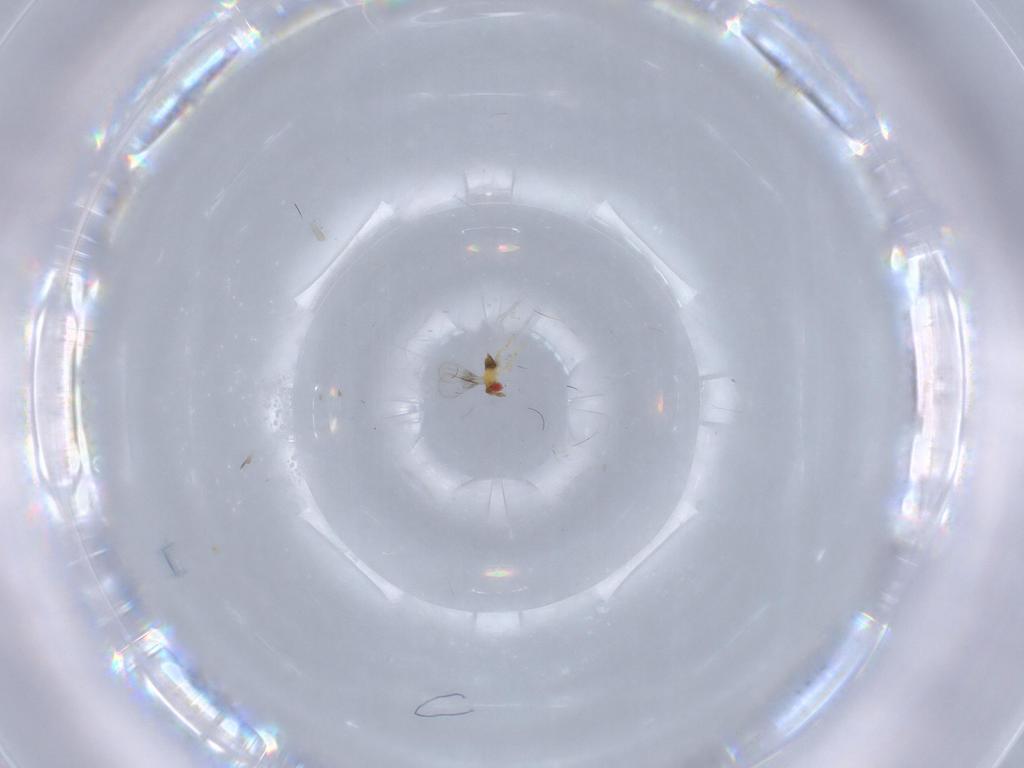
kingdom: Animalia
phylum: Arthropoda
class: Insecta
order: Hymenoptera
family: Trichogrammatidae
